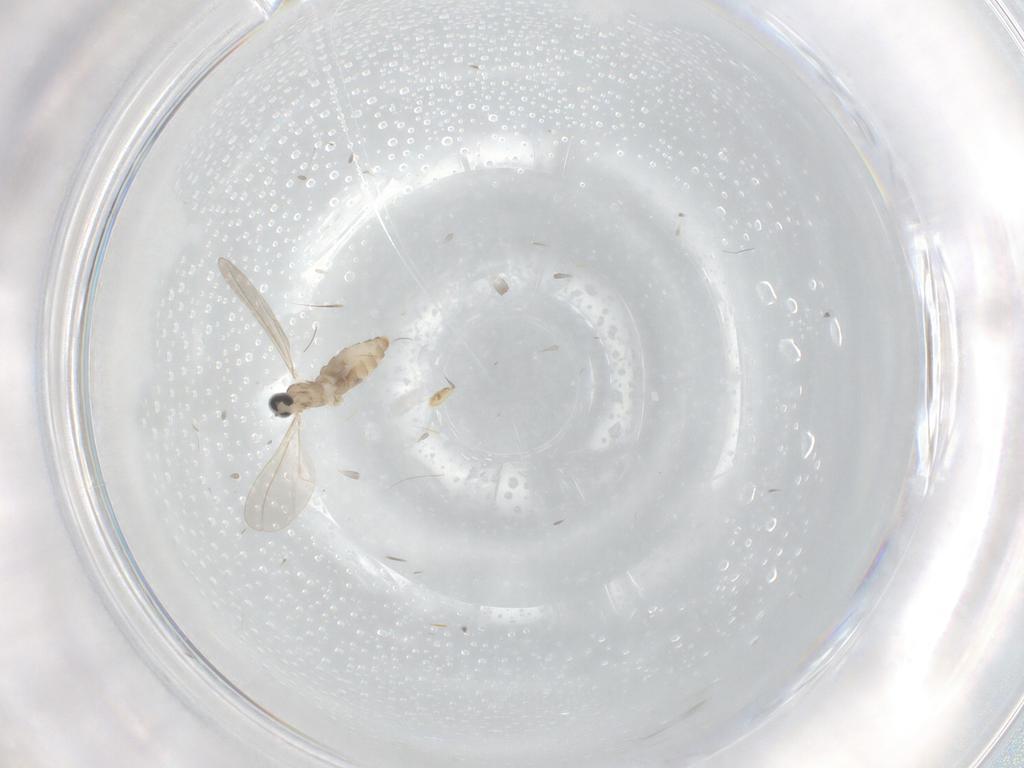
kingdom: Animalia
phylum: Arthropoda
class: Insecta
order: Diptera
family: Cecidomyiidae
